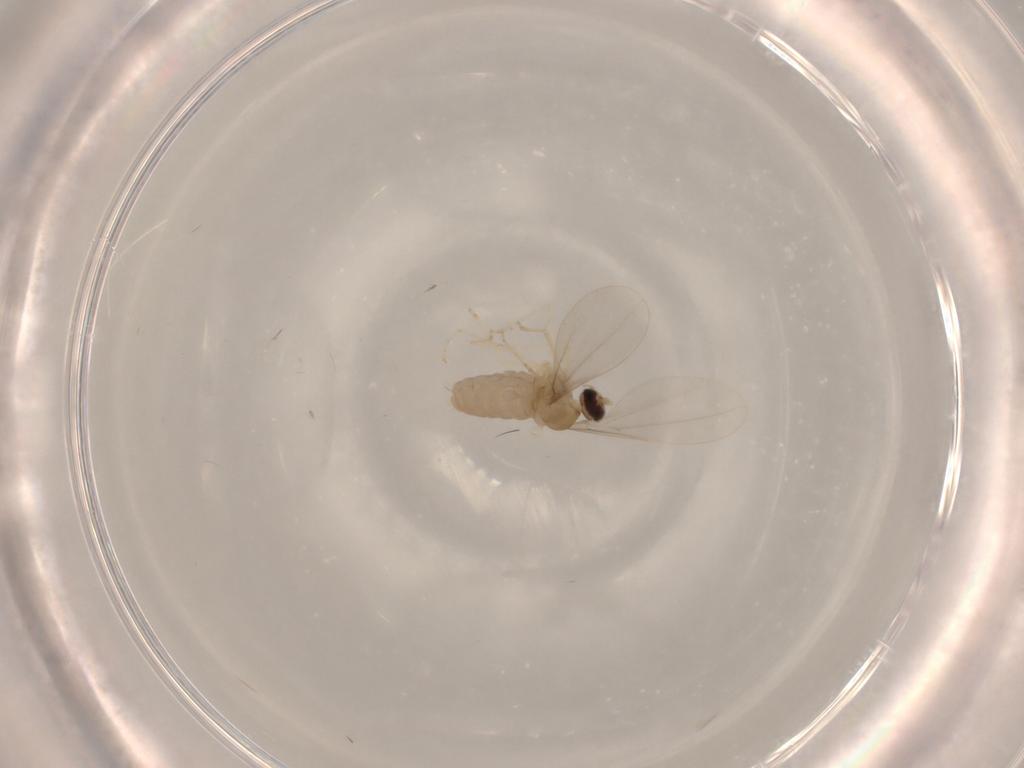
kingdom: Animalia
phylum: Arthropoda
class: Insecta
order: Diptera
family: Cecidomyiidae
